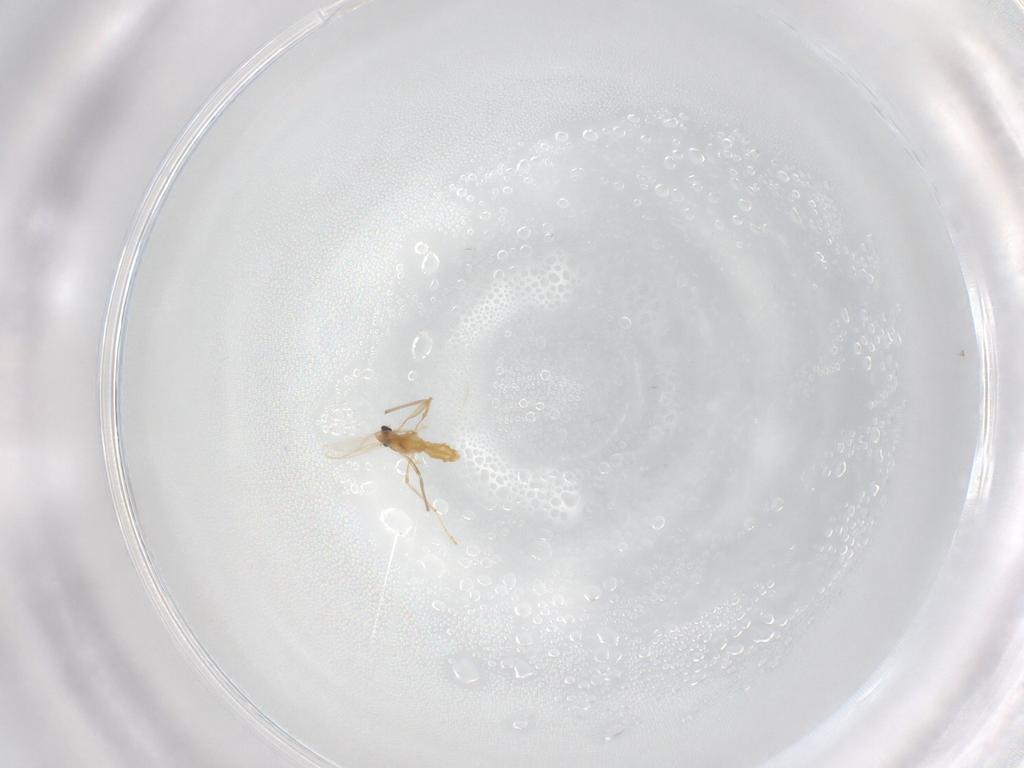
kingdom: Animalia
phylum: Arthropoda
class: Insecta
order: Diptera
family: Chironomidae
